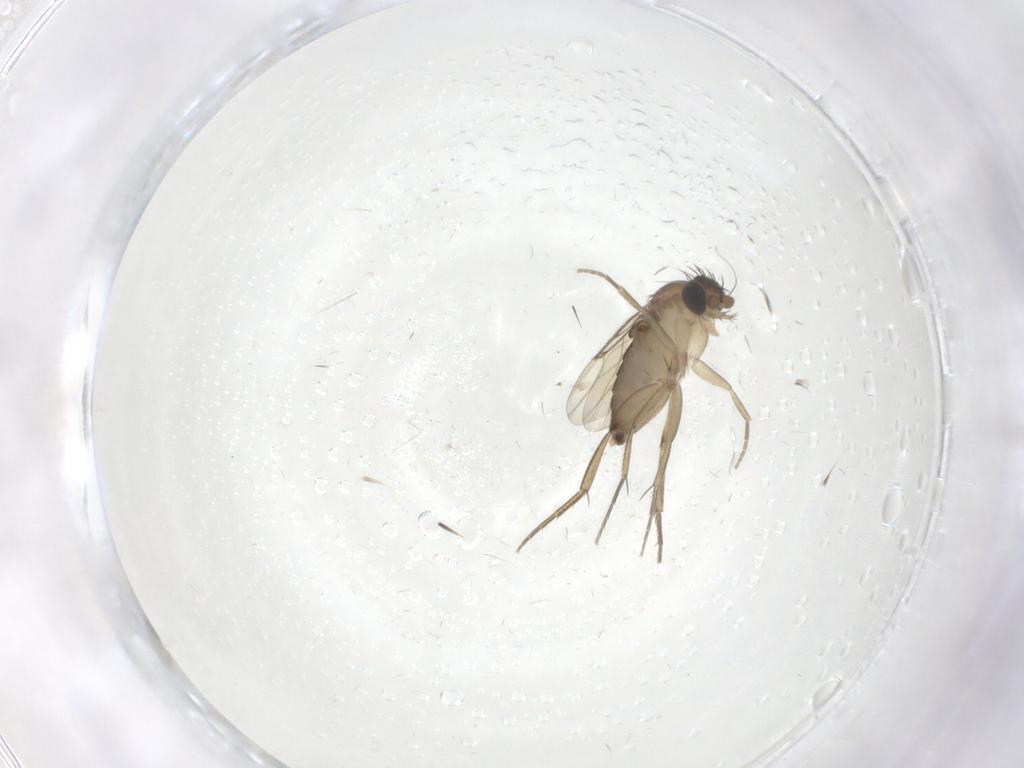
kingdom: Animalia
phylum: Arthropoda
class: Insecta
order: Diptera
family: Phoridae
